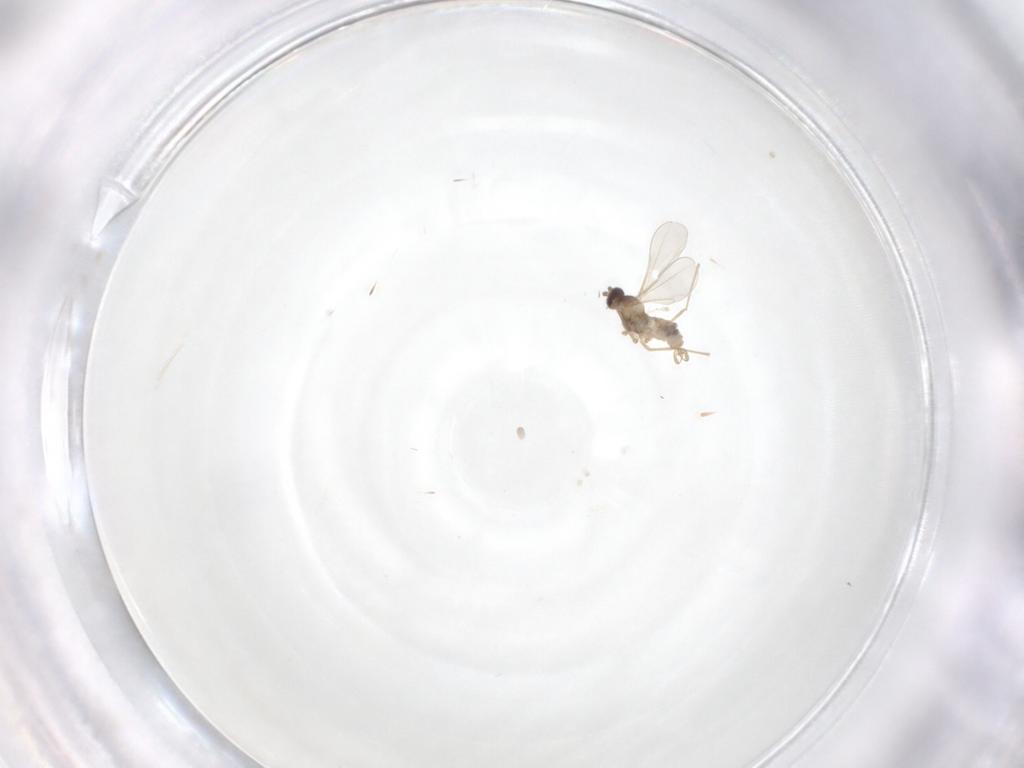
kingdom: Animalia
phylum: Arthropoda
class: Insecta
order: Diptera
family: Cecidomyiidae
